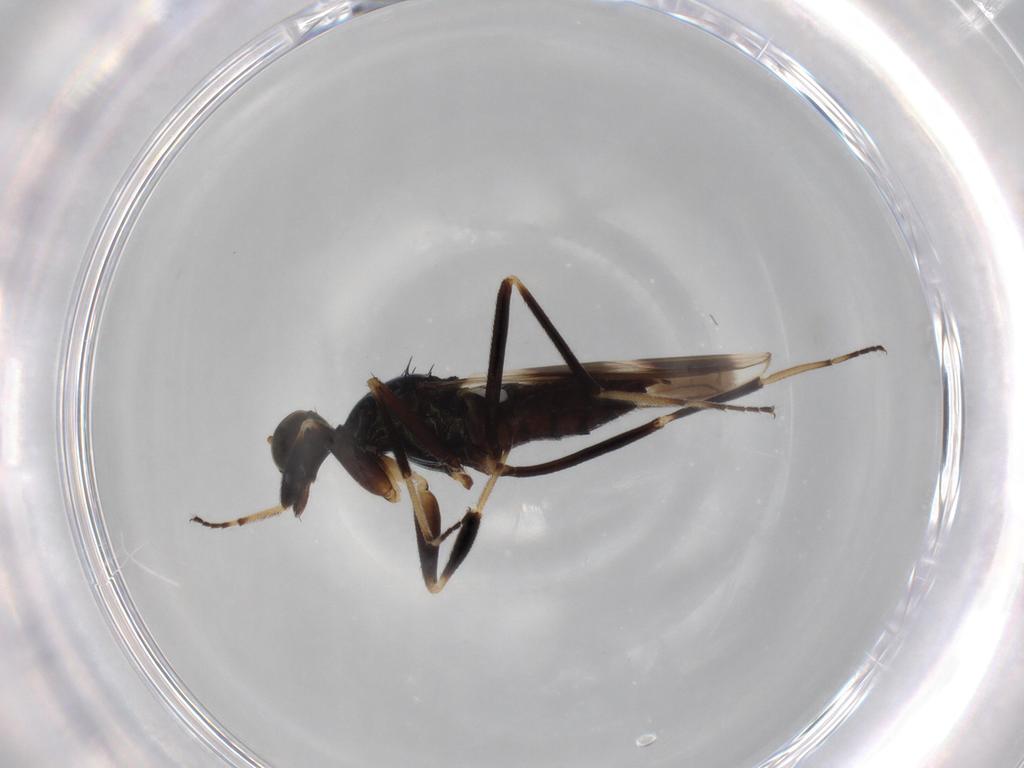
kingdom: Animalia
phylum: Arthropoda
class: Insecta
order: Diptera
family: Hybotidae
